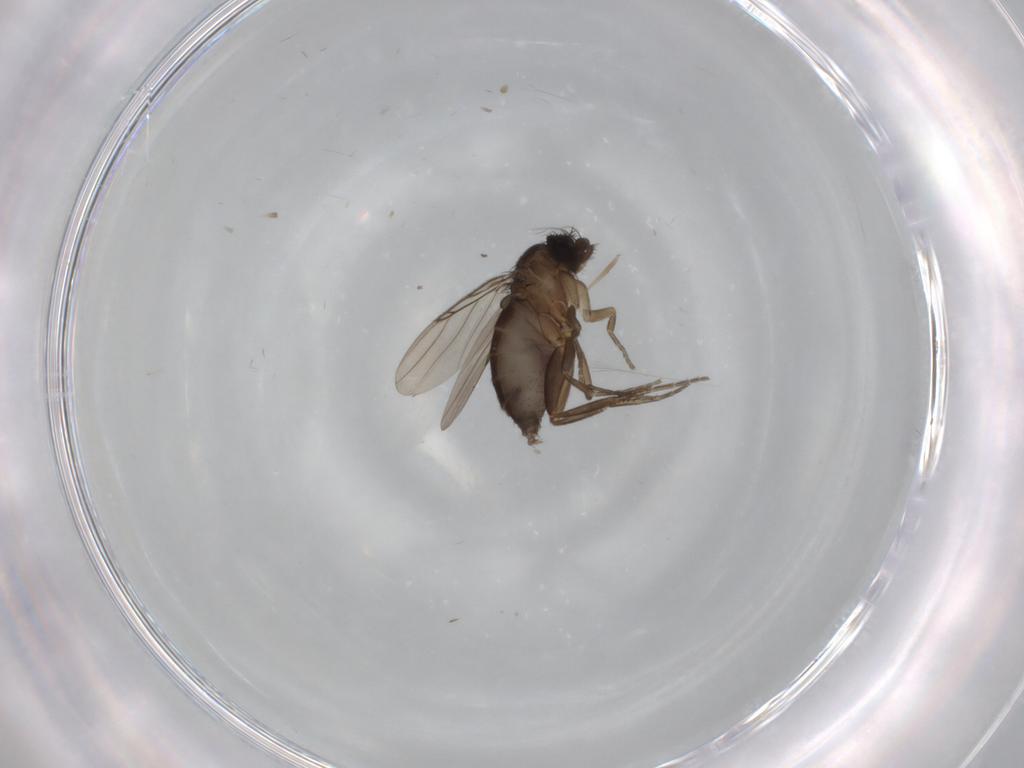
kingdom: Animalia
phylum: Arthropoda
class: Insecta
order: Diptera
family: Phoridae
